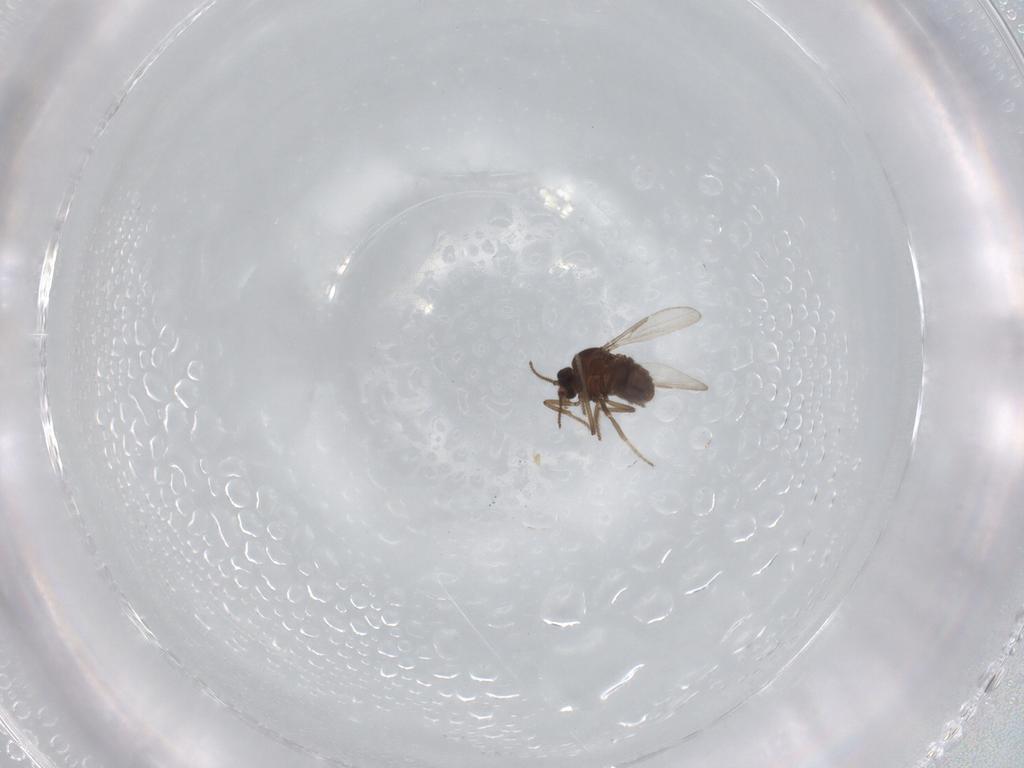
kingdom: Animalia
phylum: Arthropoda
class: Insecta
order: Diptera
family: Ceratopogonidae
